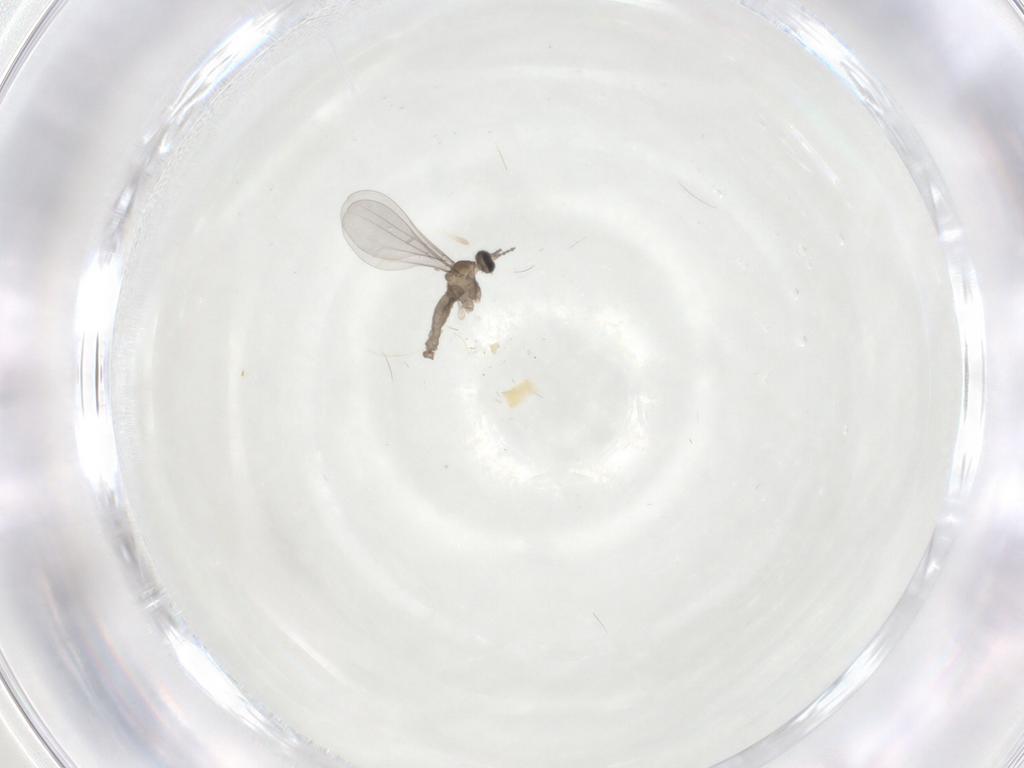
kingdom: Animalia
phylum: Arthropoda
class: Insecta
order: Diptera
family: Cecidomyiidae
